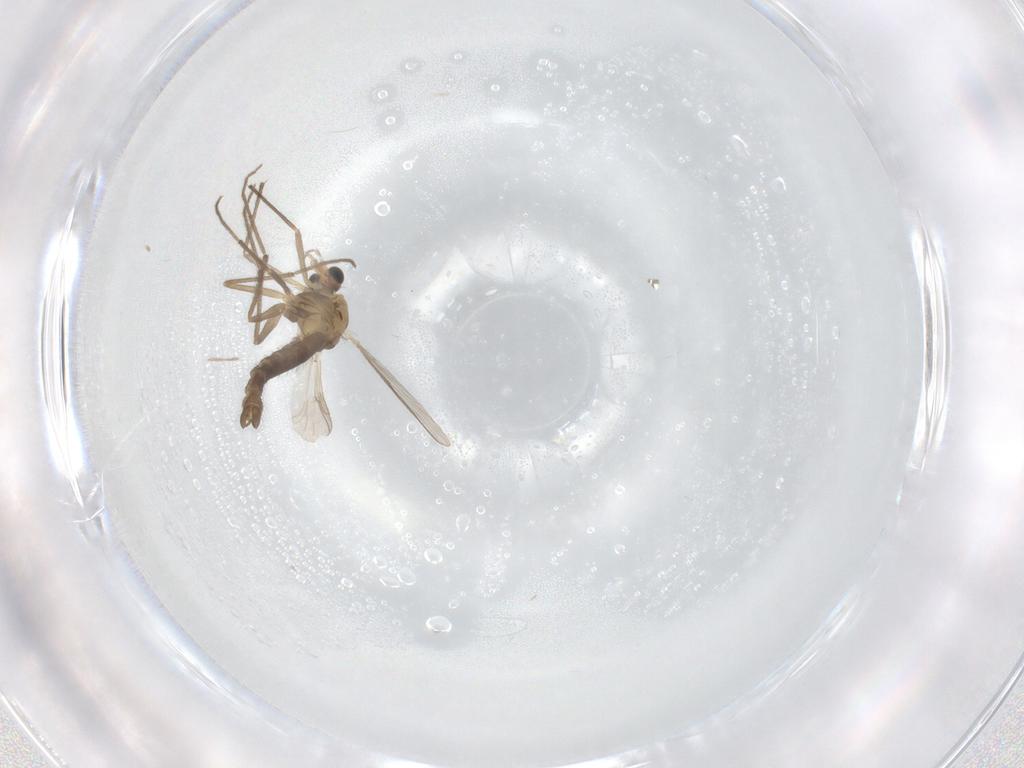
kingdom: Animalia
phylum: Arthropoda
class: Insecta
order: Diptera
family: Chironomidae
